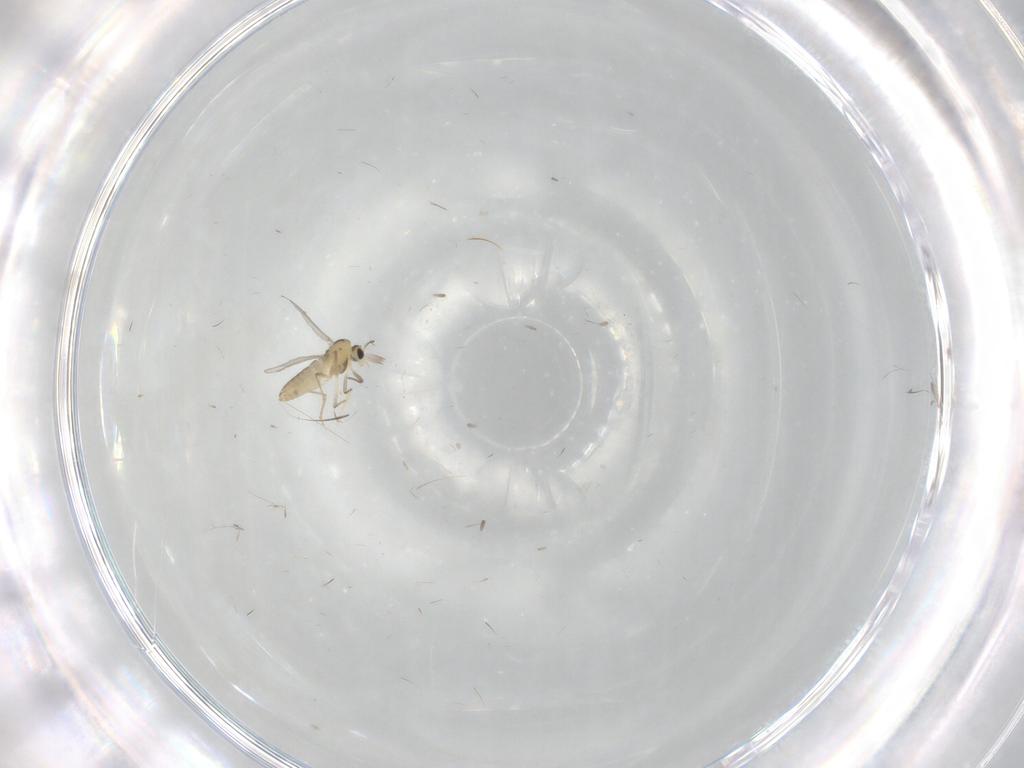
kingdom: Animalia
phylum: Arthropoda
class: Insecta
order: Diptera
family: Chironomidae
